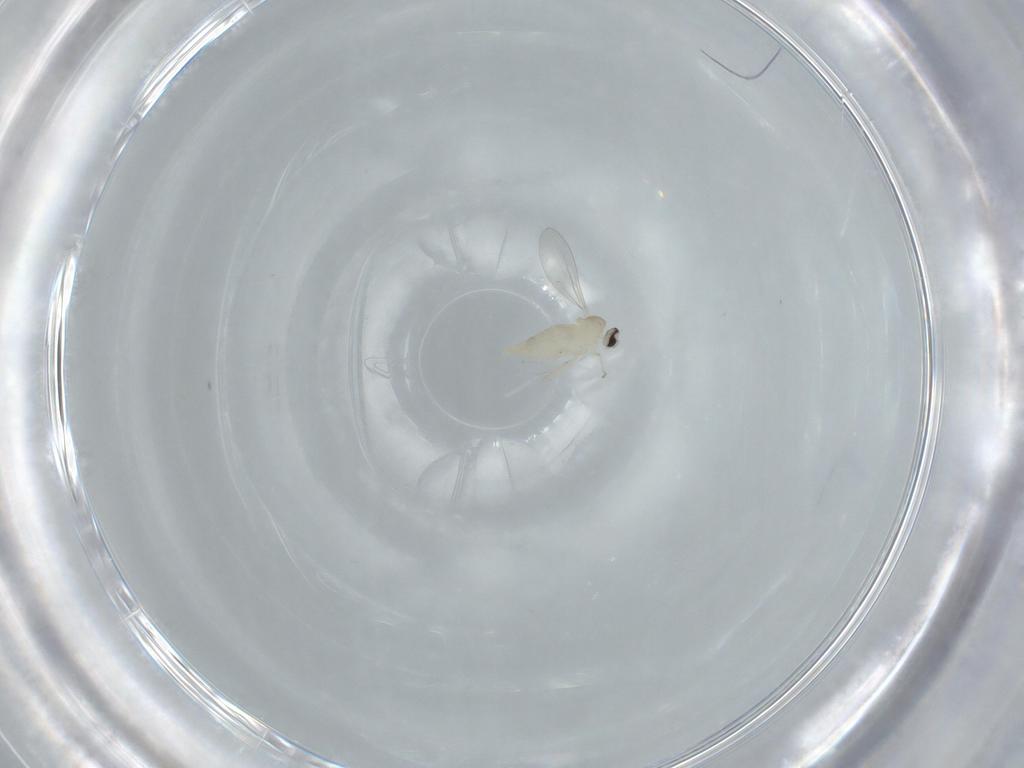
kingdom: Animalia
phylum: Arthropoda
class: Insecta
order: Diptera
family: Cecidomyiidae
